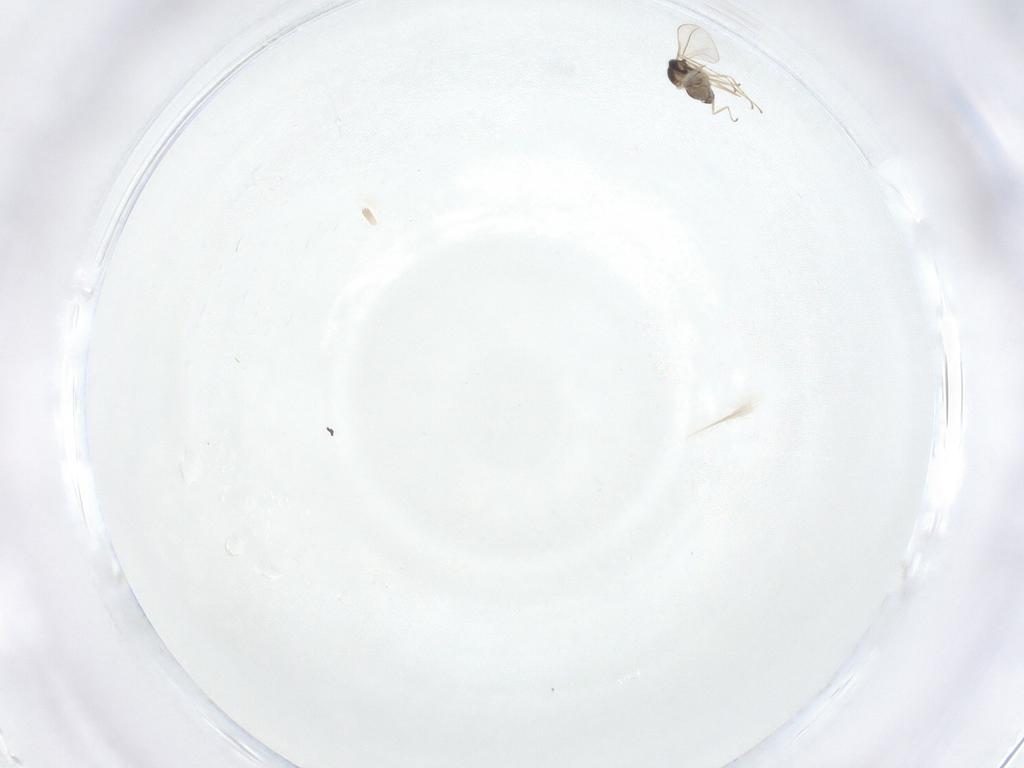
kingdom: Animalia
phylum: Arthropoda
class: Insecta
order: Diptera
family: Cecidomyiidae
